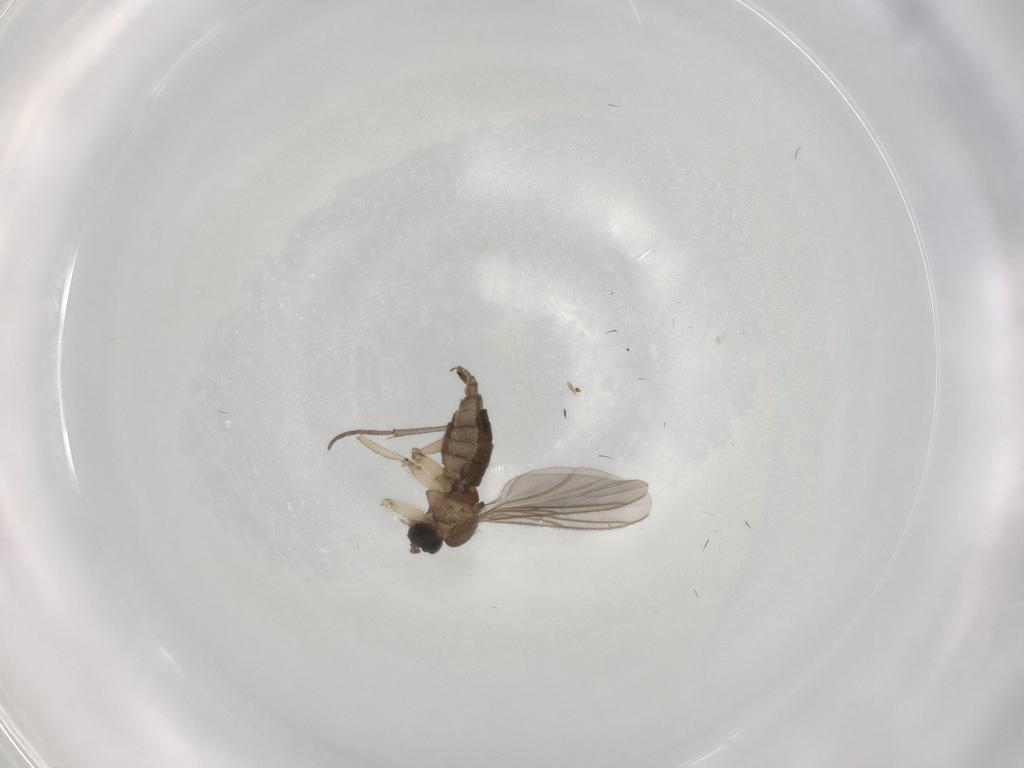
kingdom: Animalia
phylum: Arthropoda
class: Insecta
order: Diptera
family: Sciaridae
